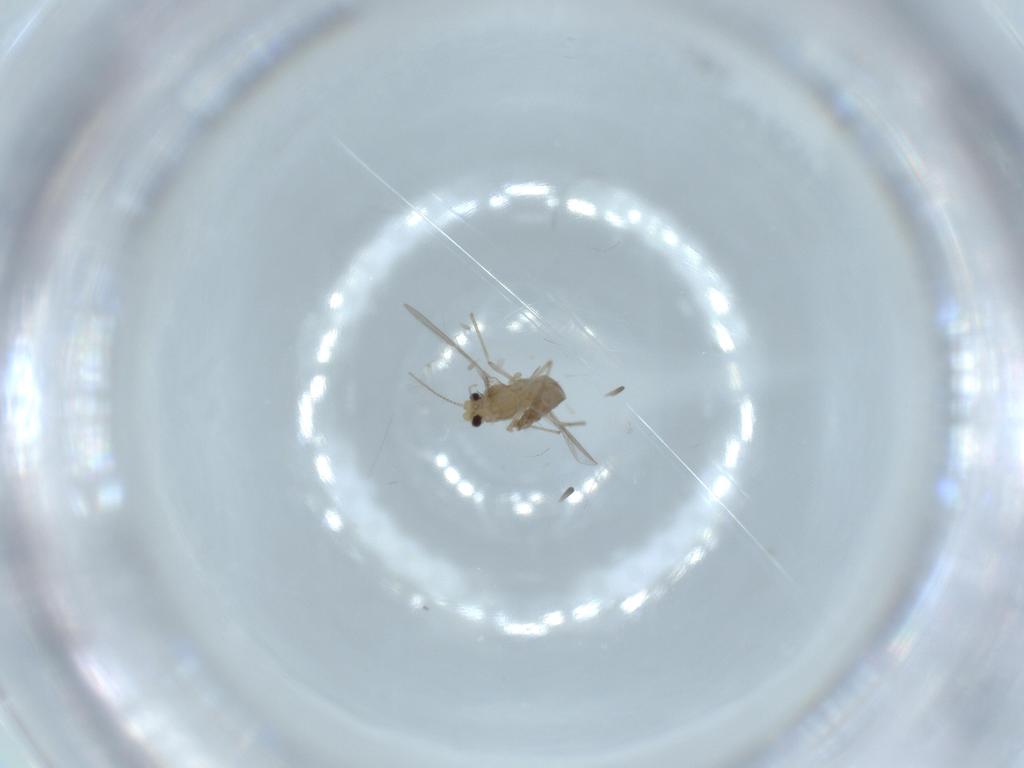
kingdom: Animalia
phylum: Arthropoda
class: Insecta
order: Diptera
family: Chironomidae
